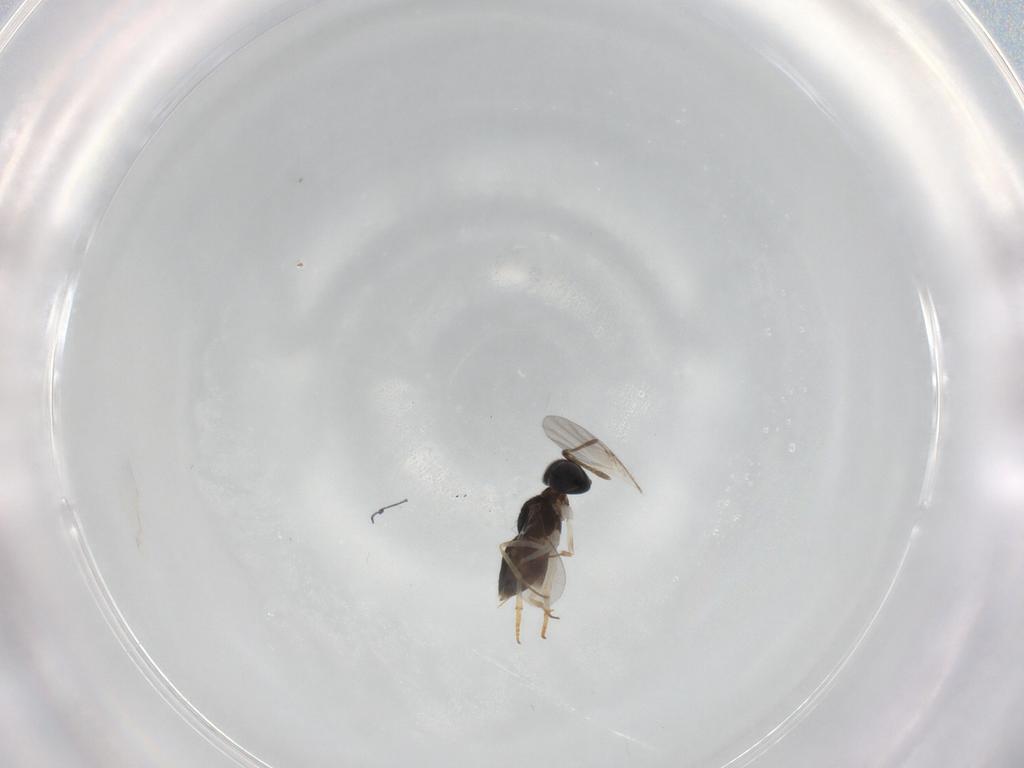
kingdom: Animalia
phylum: Arthropoda
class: Insecta
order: Hymenoptera
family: Encyrtidae
